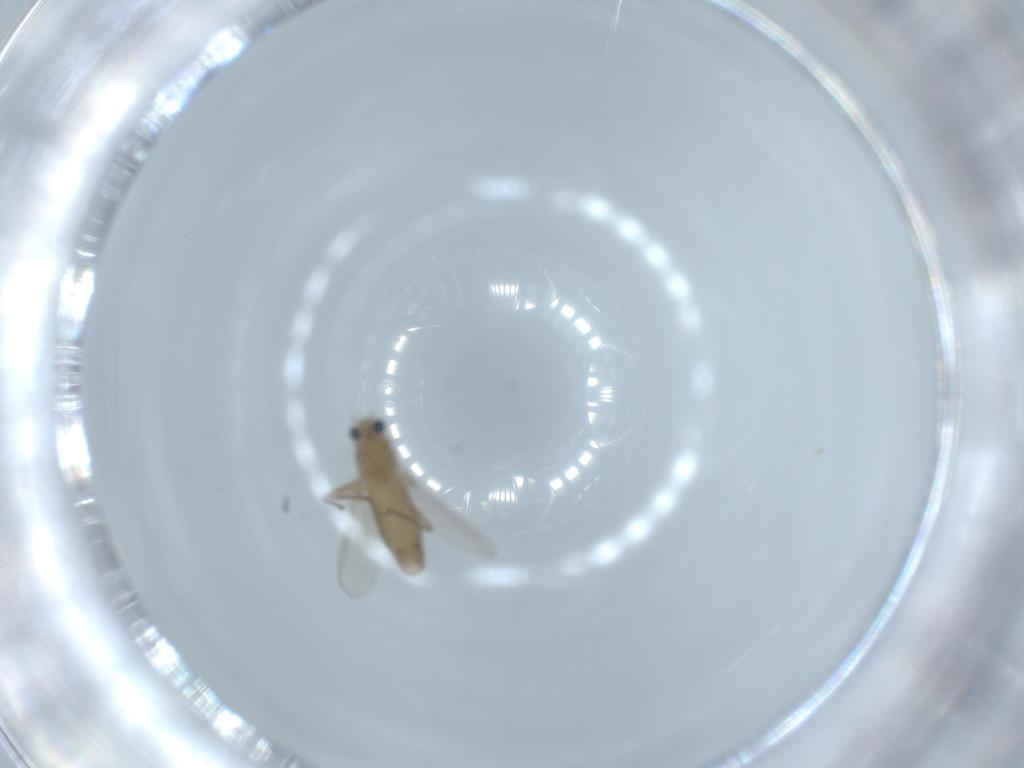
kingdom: Animalia
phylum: Arthropoda
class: Insecta
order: Diptera
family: Chironomidae
